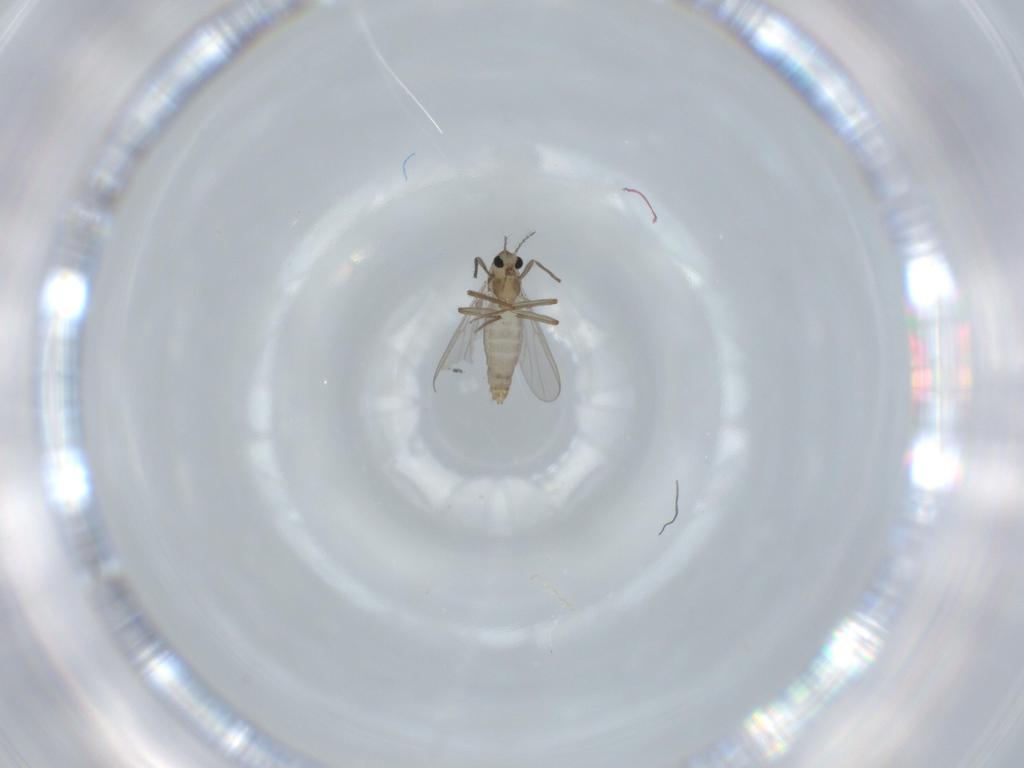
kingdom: Animalia
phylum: Arthropoda
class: Insecta
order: Diptera
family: Chironomidae
